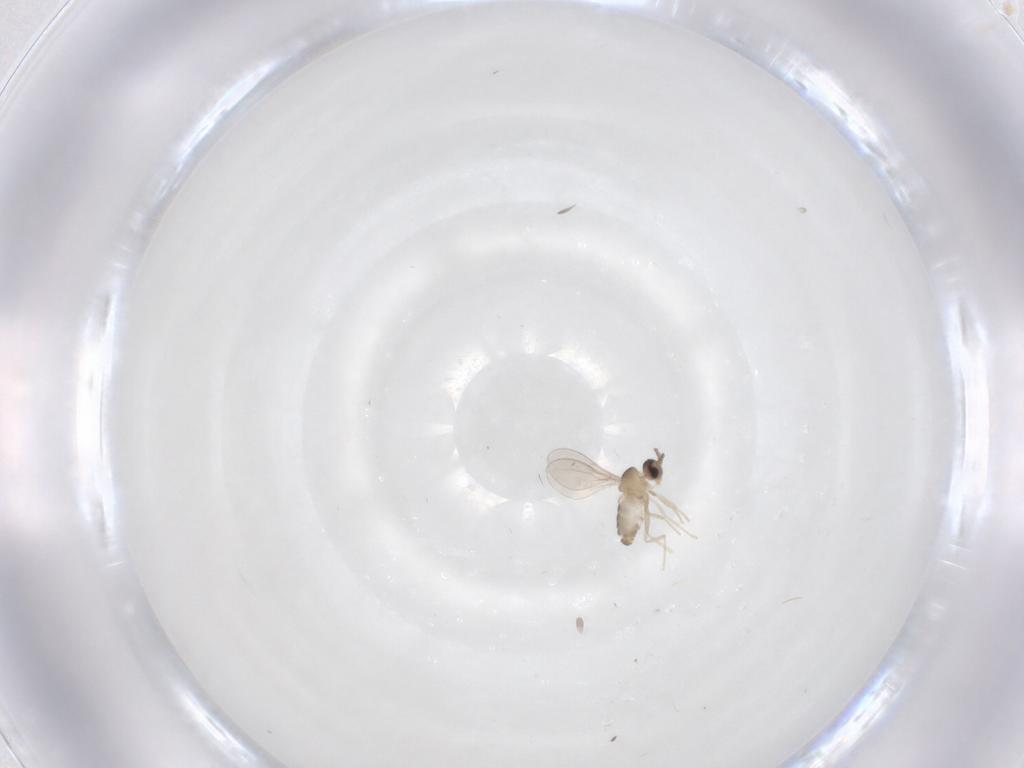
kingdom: Animalia
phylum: Arthropoda
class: Insecta
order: Diptera
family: Cecidomyiidae
